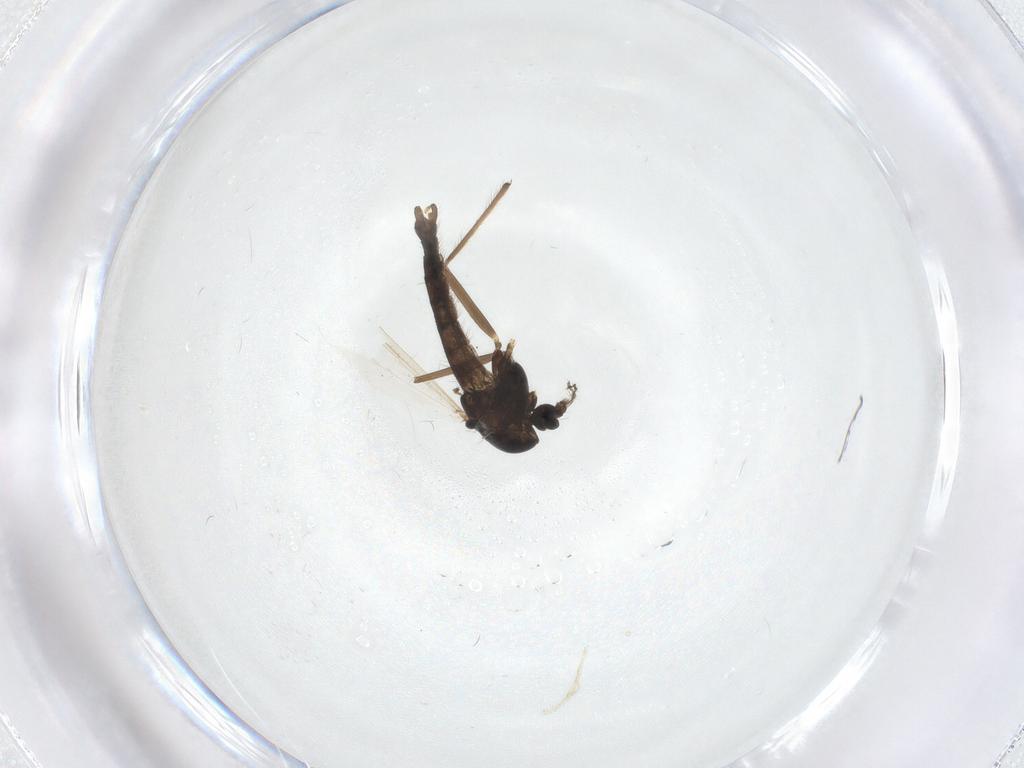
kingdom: Animalia
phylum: Arthropoda
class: Insecta
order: Diptera
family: Chironomidae
